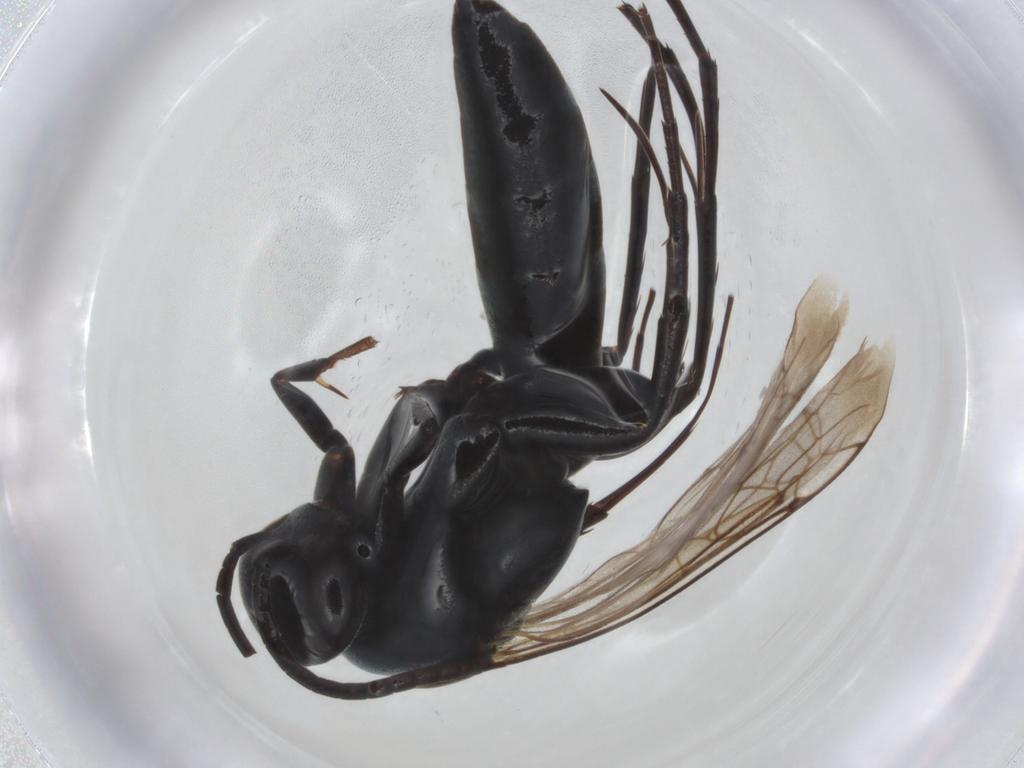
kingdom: Animalia
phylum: Arthropoda
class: Insecta
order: Hymenoptera
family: Pompilidae
